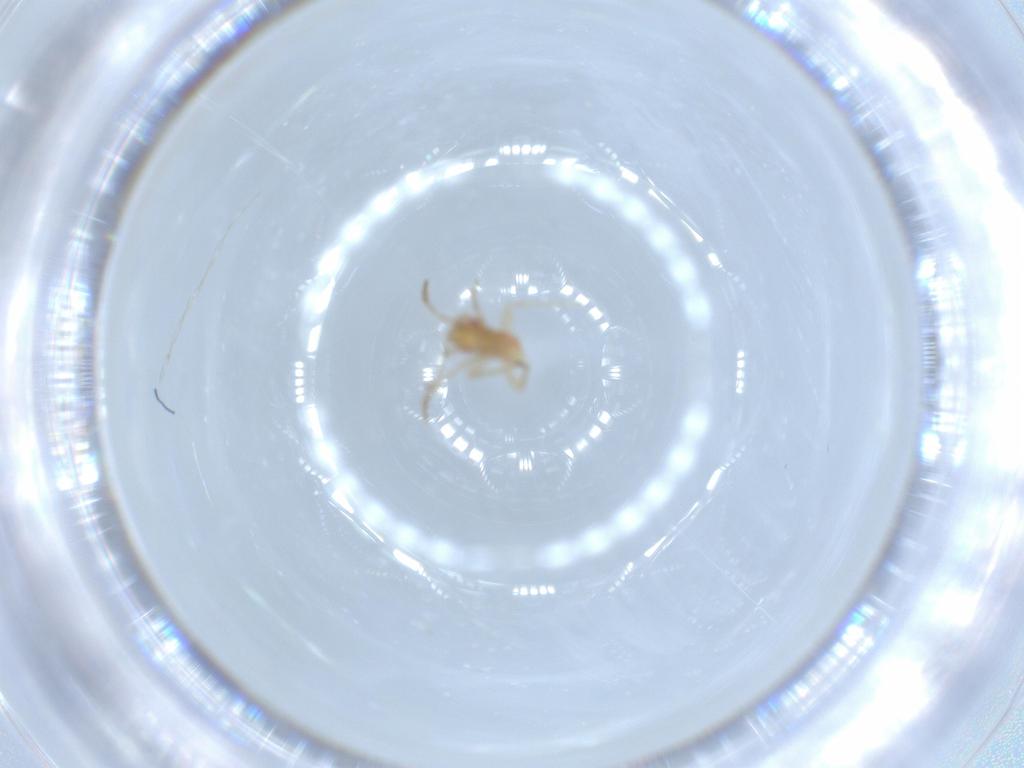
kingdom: Animalia
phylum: Arthropoda
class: Insecta
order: Hemiptera
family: Miridae
